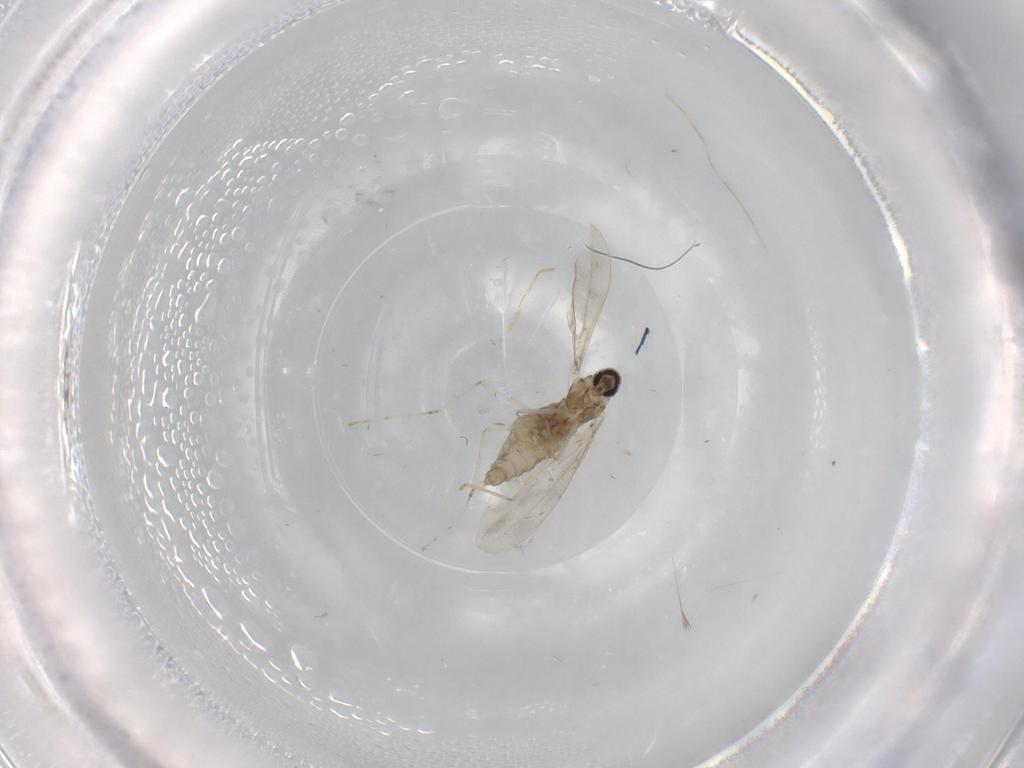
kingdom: Animalia
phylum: Arthropoda
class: Insecta
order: Diptera
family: Cecidomyiidae
